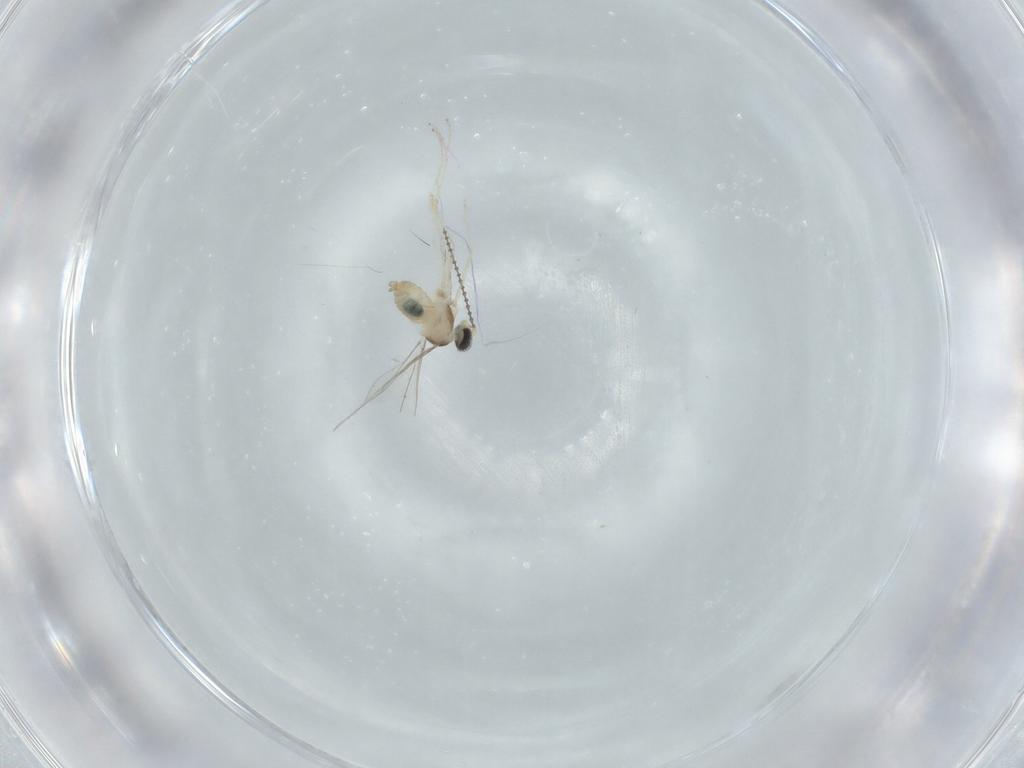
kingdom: Animalia
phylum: Arthropoda
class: Insecta
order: Diptera
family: Cecidomyiidae
